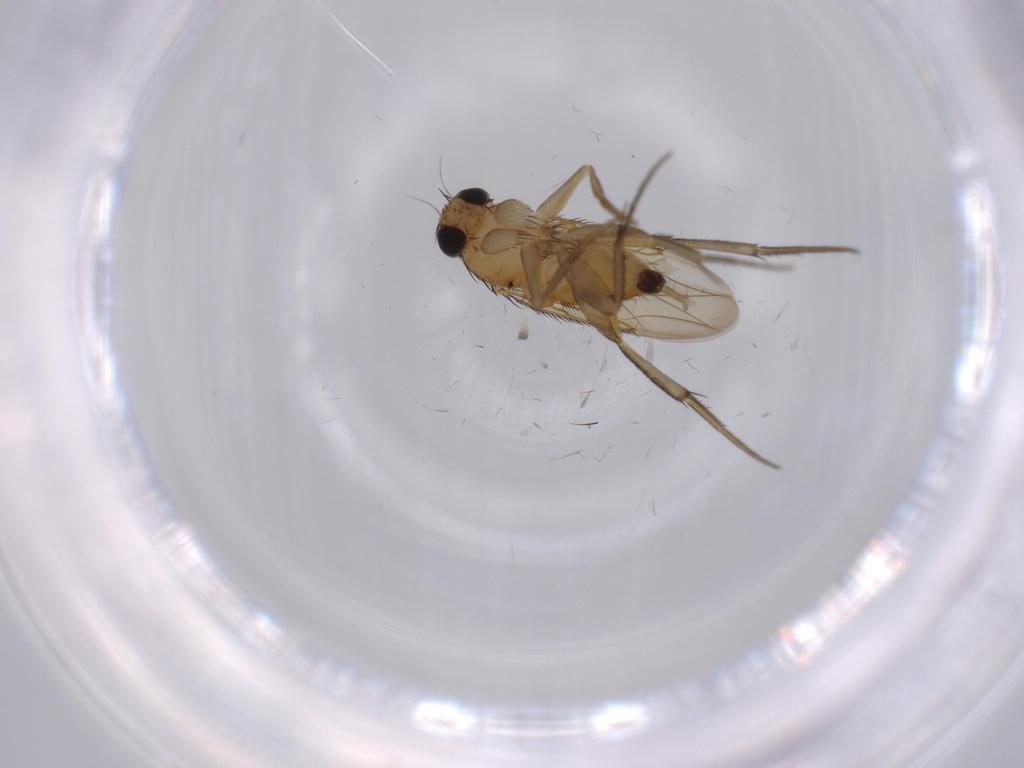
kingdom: Animalia
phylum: Arthropoda
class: Insecta
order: Diptera
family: Phoridae
